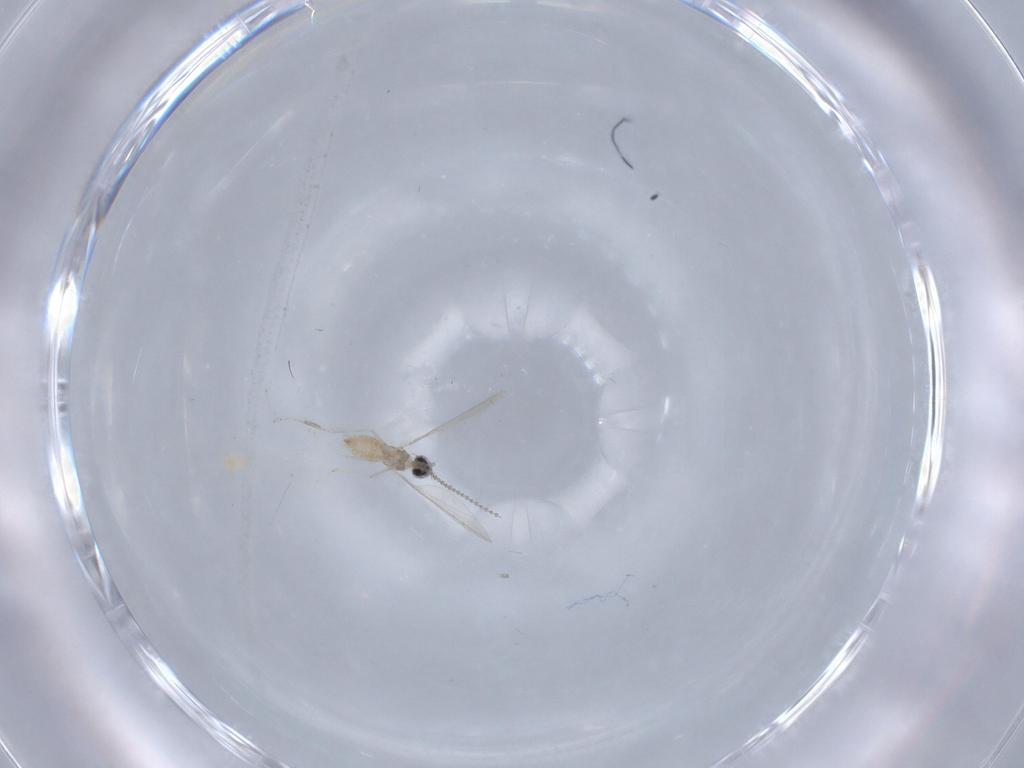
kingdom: Animalia
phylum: Arthropoda
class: Insecta
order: Diptera
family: Cecidomyiidae
